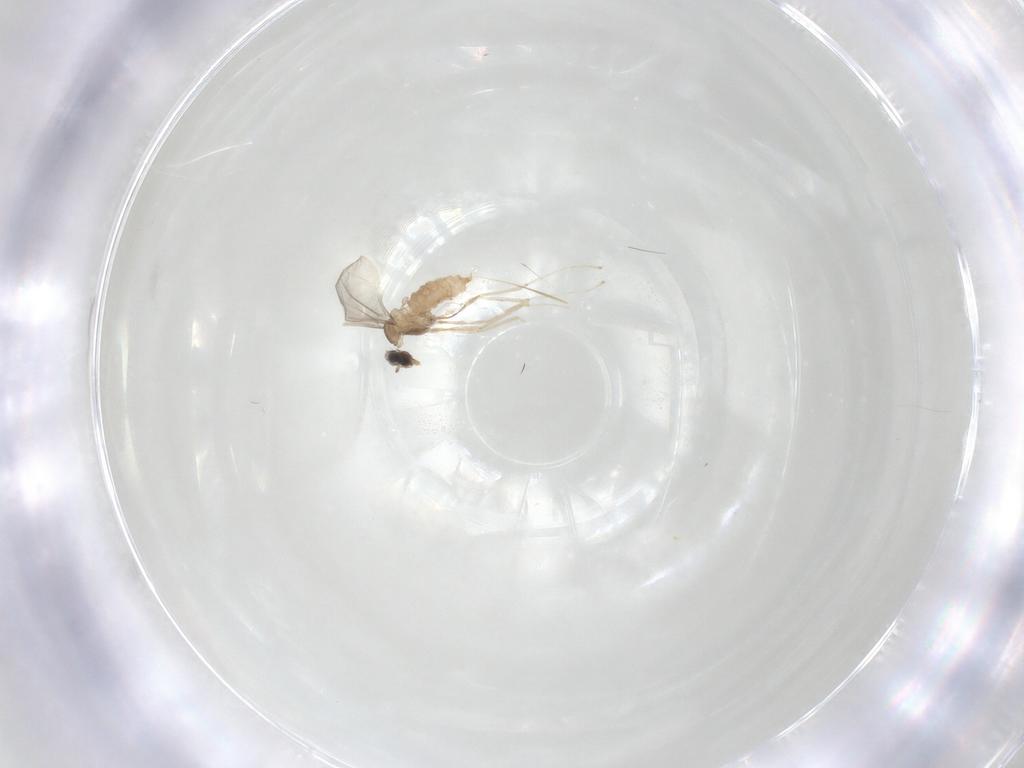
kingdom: Animalia
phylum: Arthropoda
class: Insecta
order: Diptera
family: Cecidomyiidae
